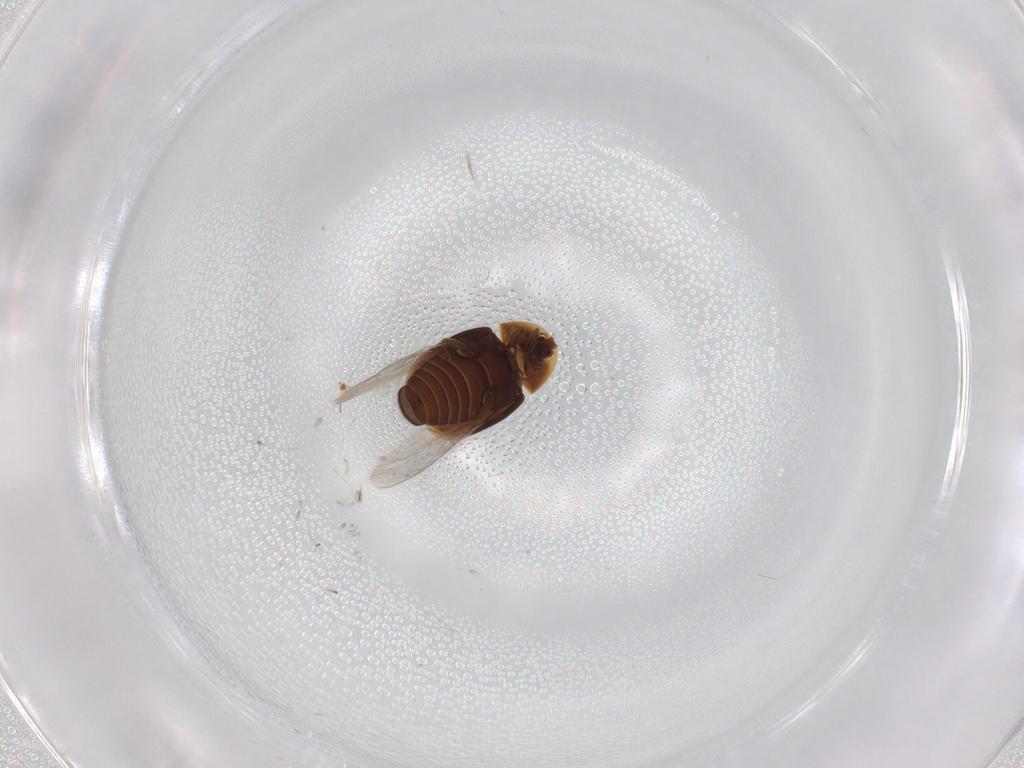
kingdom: Animalia
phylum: Arthropoda
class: Insecta
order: Coleoptera
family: Corylophidae
